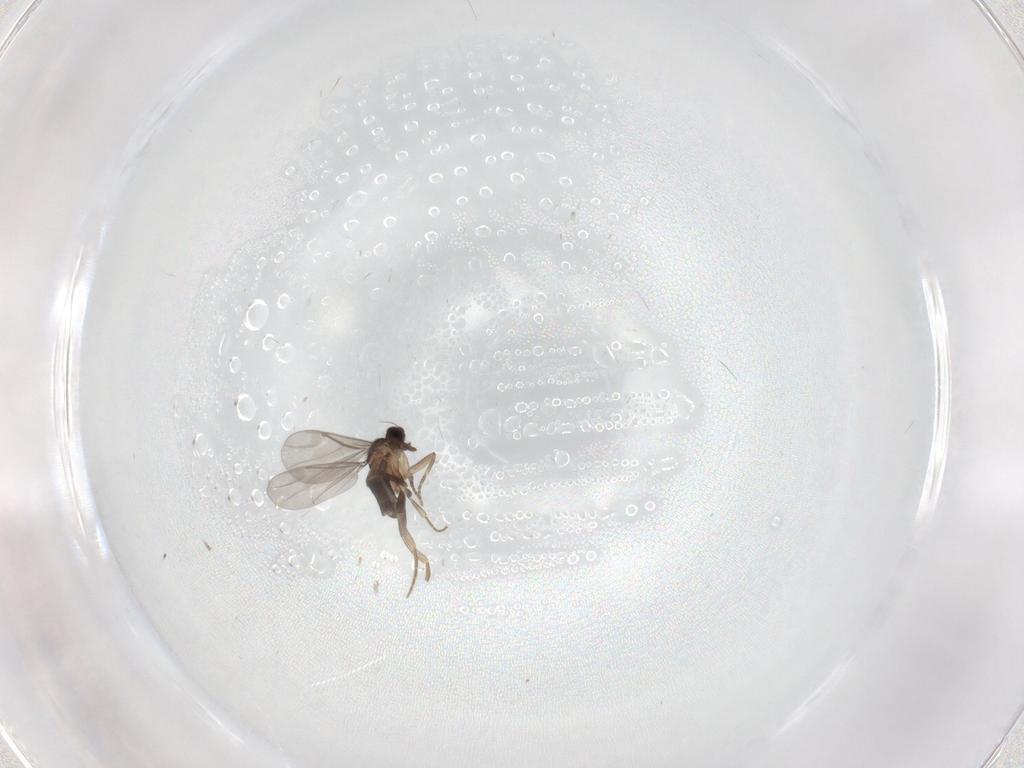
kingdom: Animalia
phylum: Arthropoda
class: Insecta
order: Diptera
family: Phoridae
